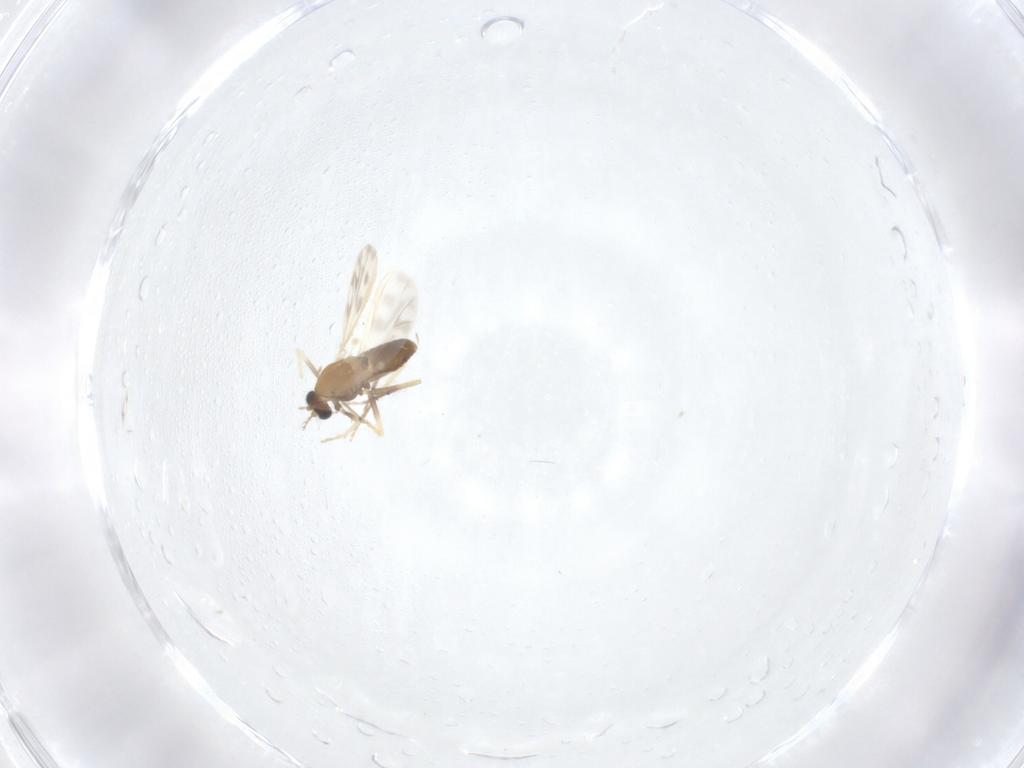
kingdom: Animalia
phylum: Arthropoda
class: Insecta
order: Diptera
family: Chironomidae
